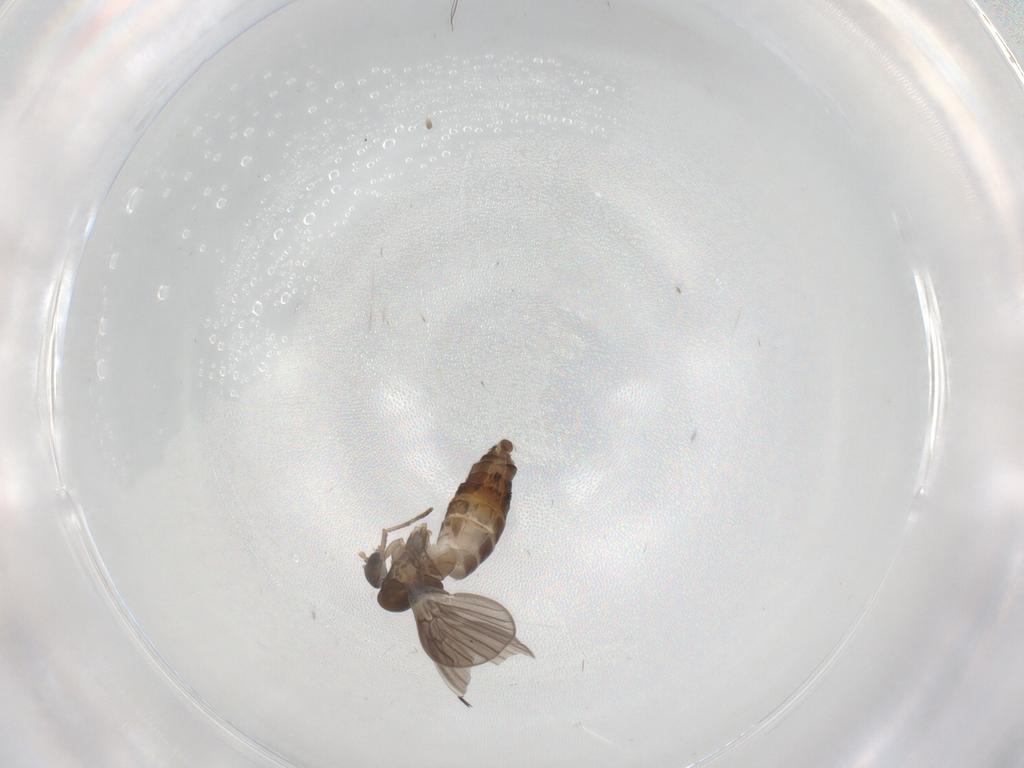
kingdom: Animalia
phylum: Arthropoda
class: Insecta
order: Diptera
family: Psychodidae
